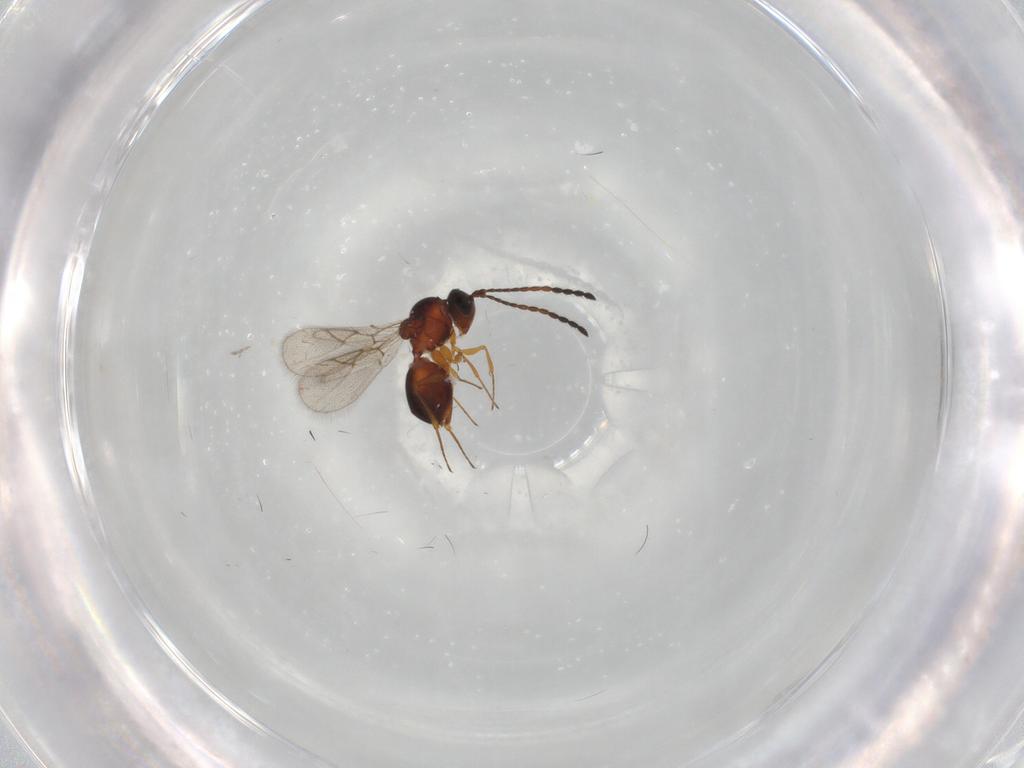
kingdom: Animalia
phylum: Arthropoda
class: Insecta
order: Hymenoptera
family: Figitidae
